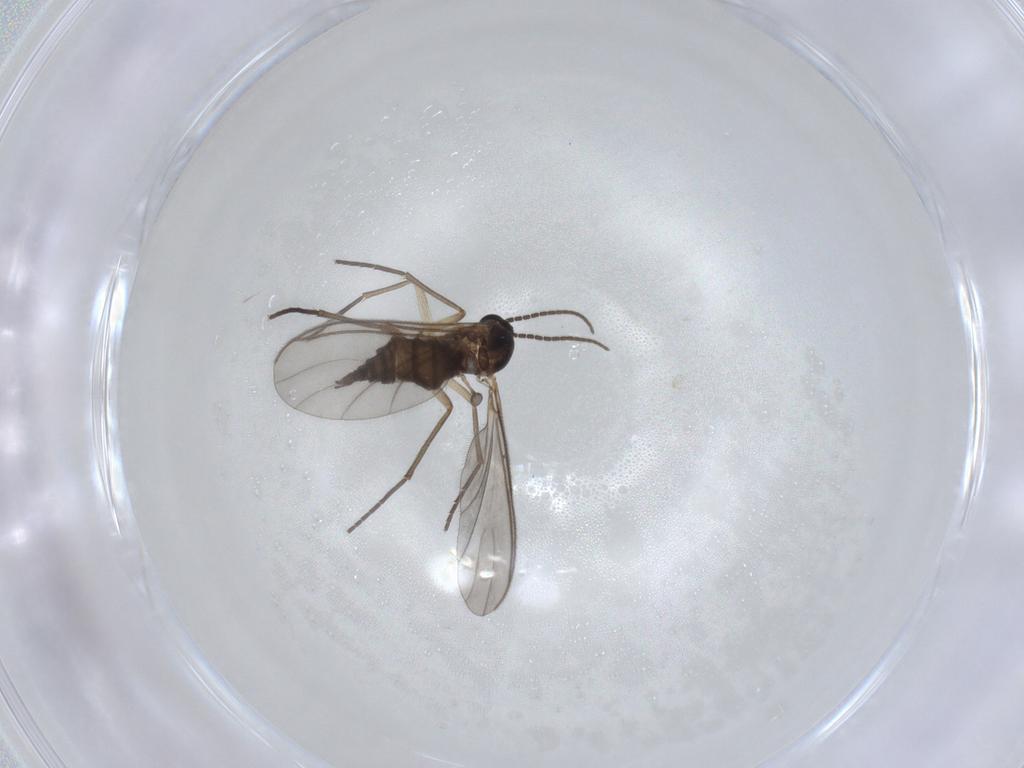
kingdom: Animalia
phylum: Arthropoda
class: Insecta
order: Diptera
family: Sciaridae
